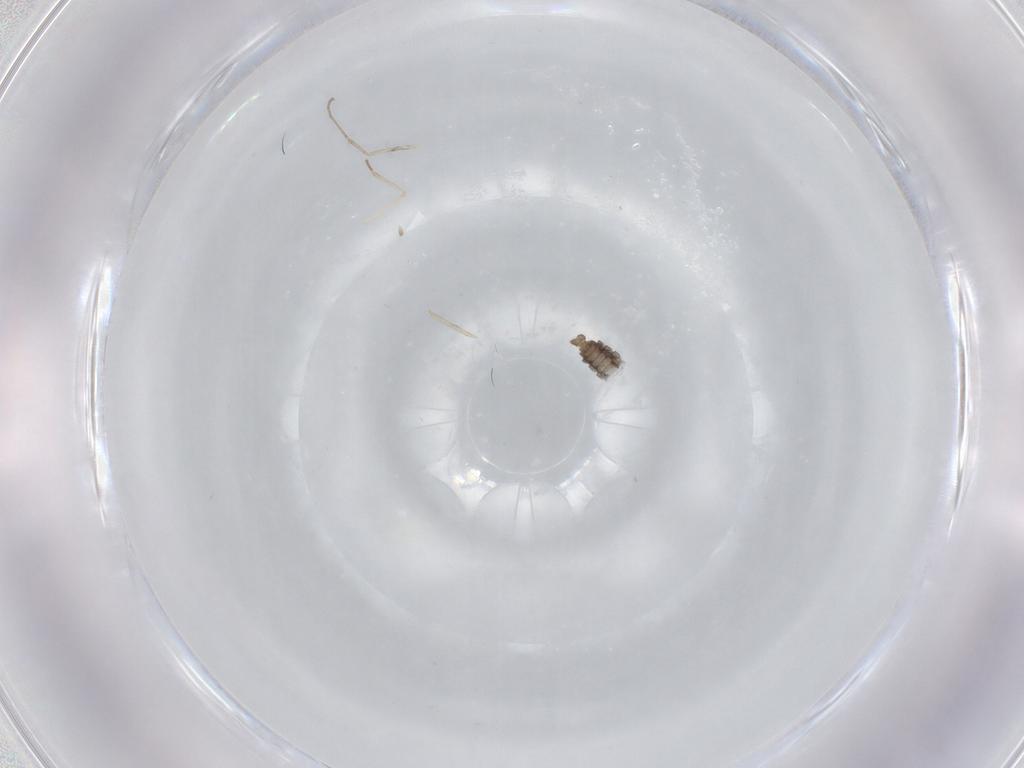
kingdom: Animalia
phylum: Arthropoda
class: Insecta
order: Diptera
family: Cecidomyiidae
